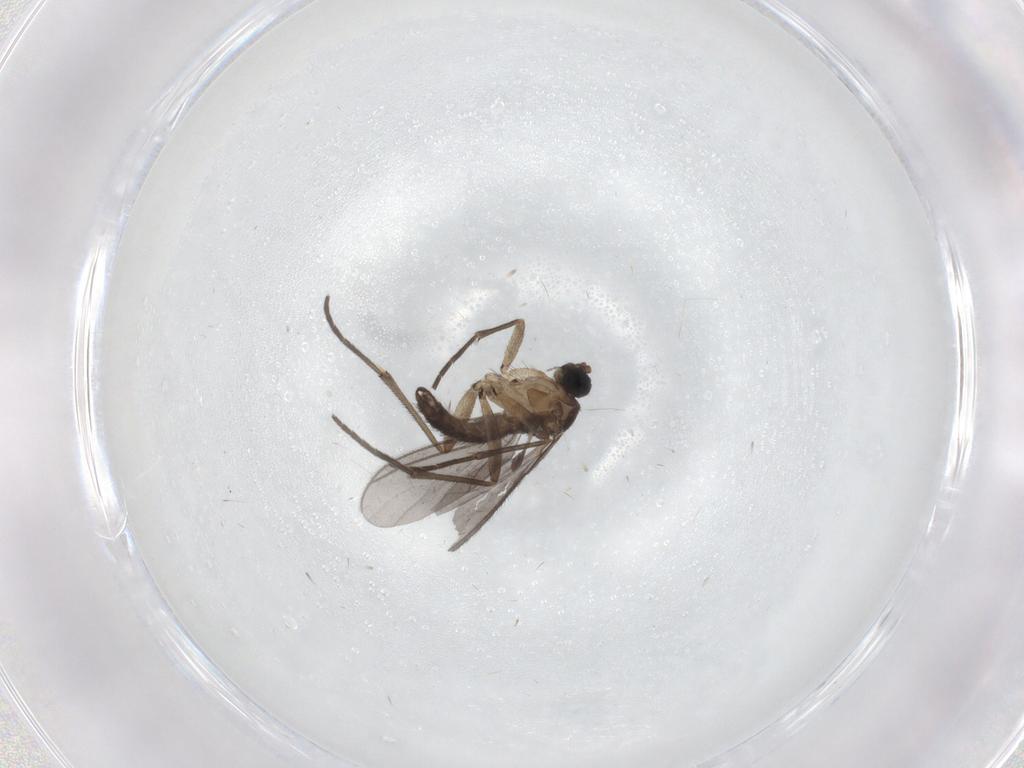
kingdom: Animalia
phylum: Arthropoda
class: Insecta
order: Diptera
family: Sciaridae
